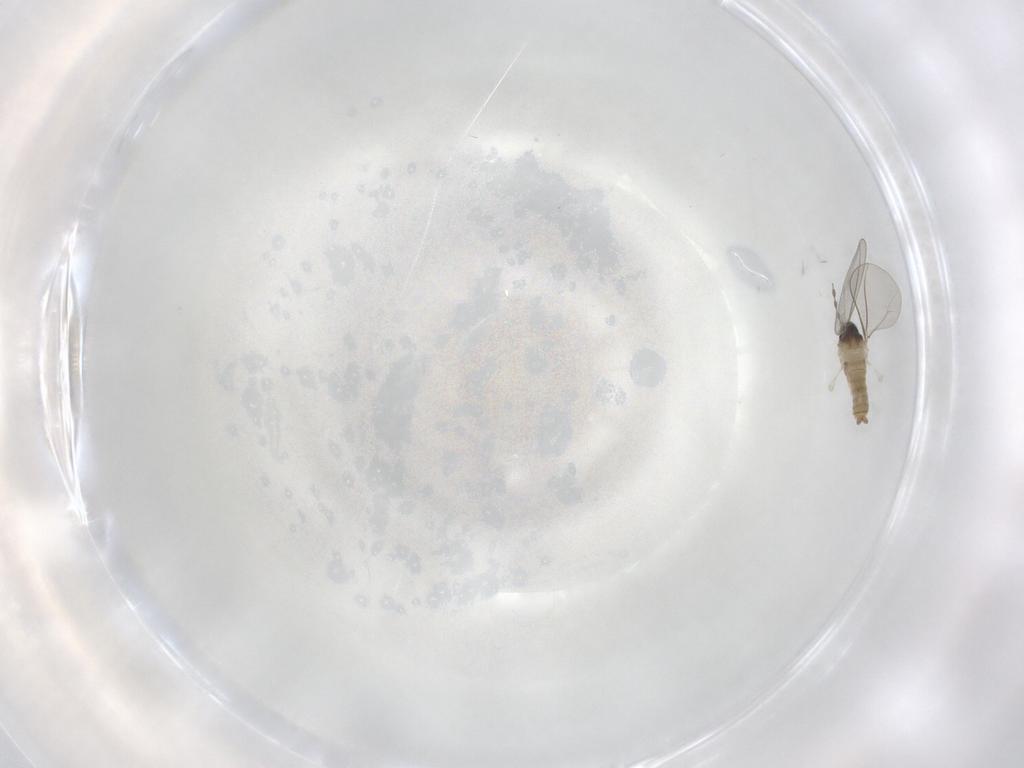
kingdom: Animalia
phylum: Arthropoda
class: Insecta
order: Diptera
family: Cecidomyiidae
